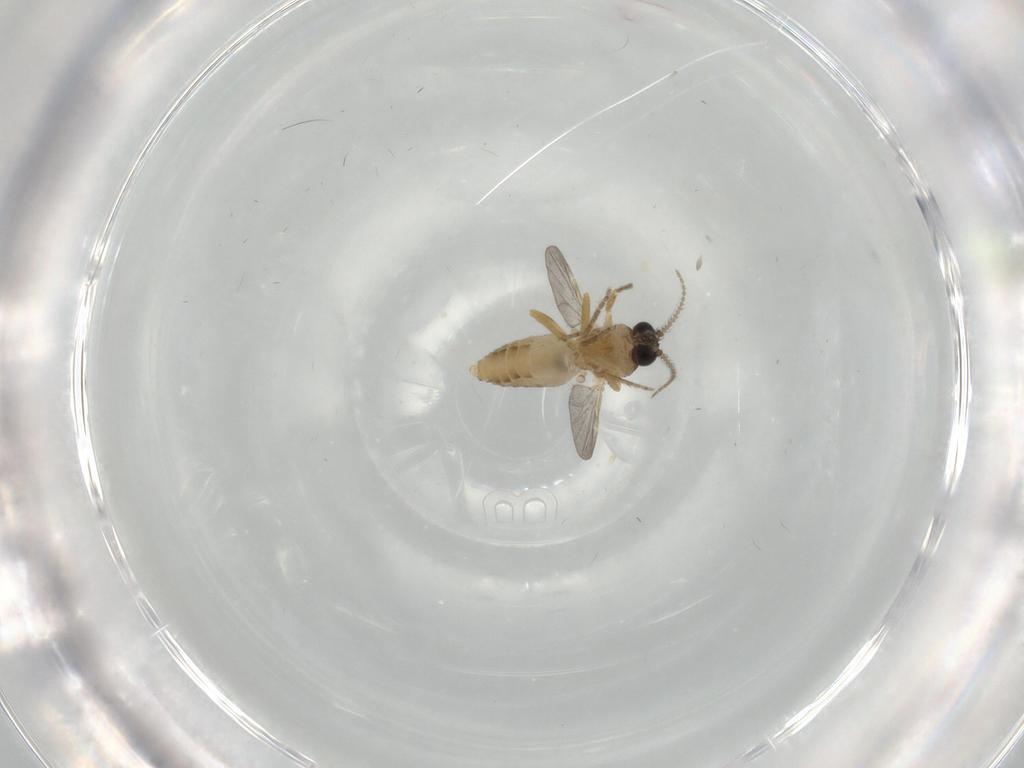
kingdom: Animalia
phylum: Arthropoda
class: Insecta
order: Diptera
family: Ceratopogonidae
